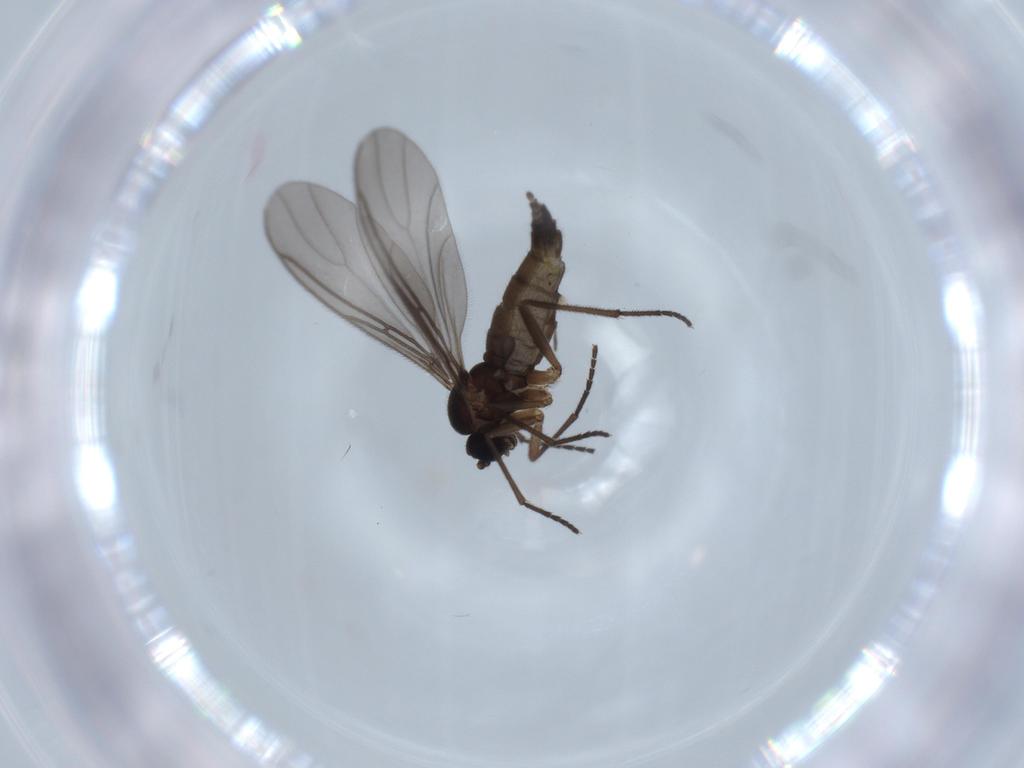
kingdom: Animalia
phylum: Arthropoda
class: Insecta
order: Diptera
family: Sciaridae
